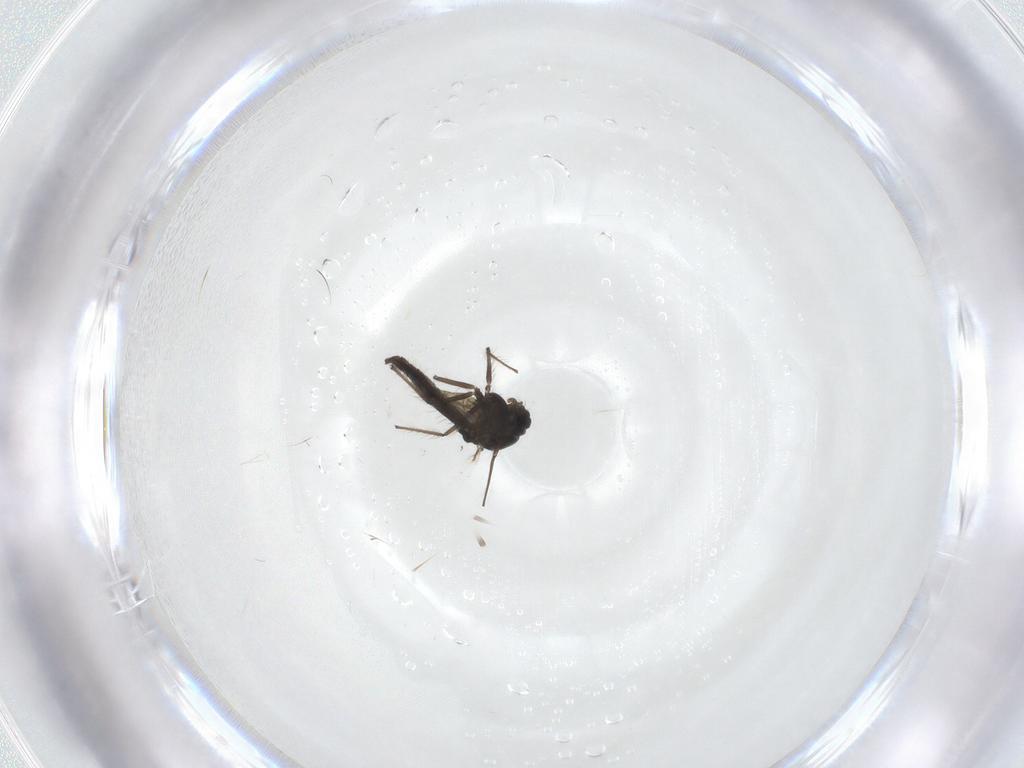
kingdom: Animalia
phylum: Arthropoda
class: Insecta
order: Diptera
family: Chironomidae
